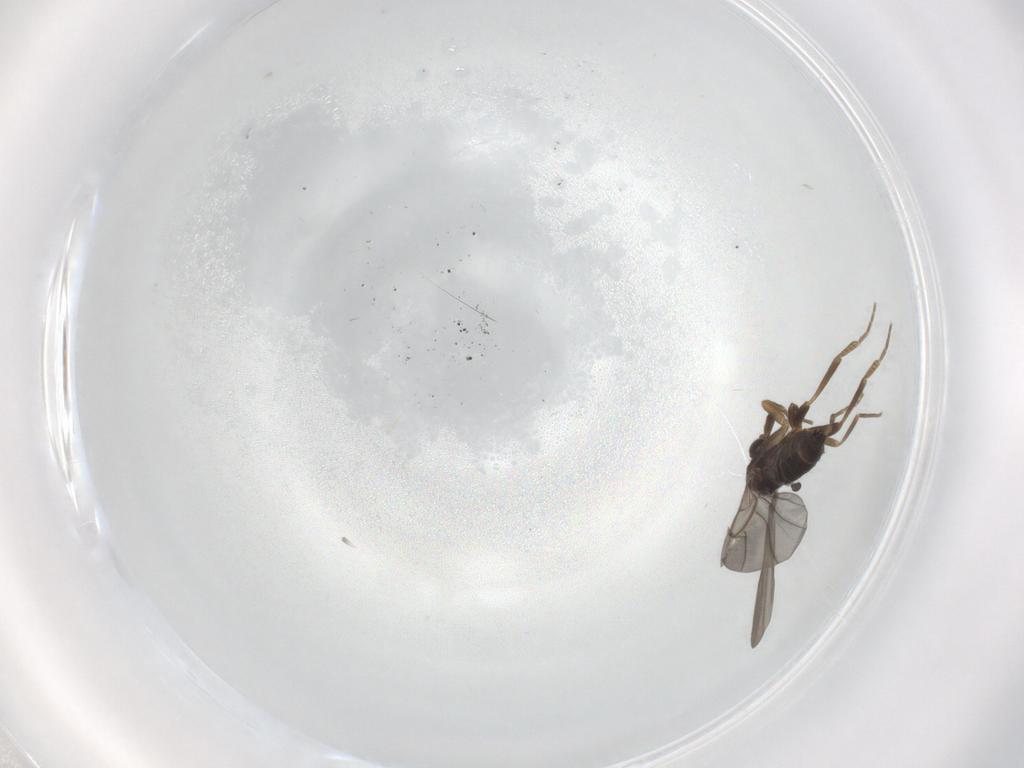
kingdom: Animalia
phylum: Arthropoda
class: Insecta
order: Diptera
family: Phoridae
